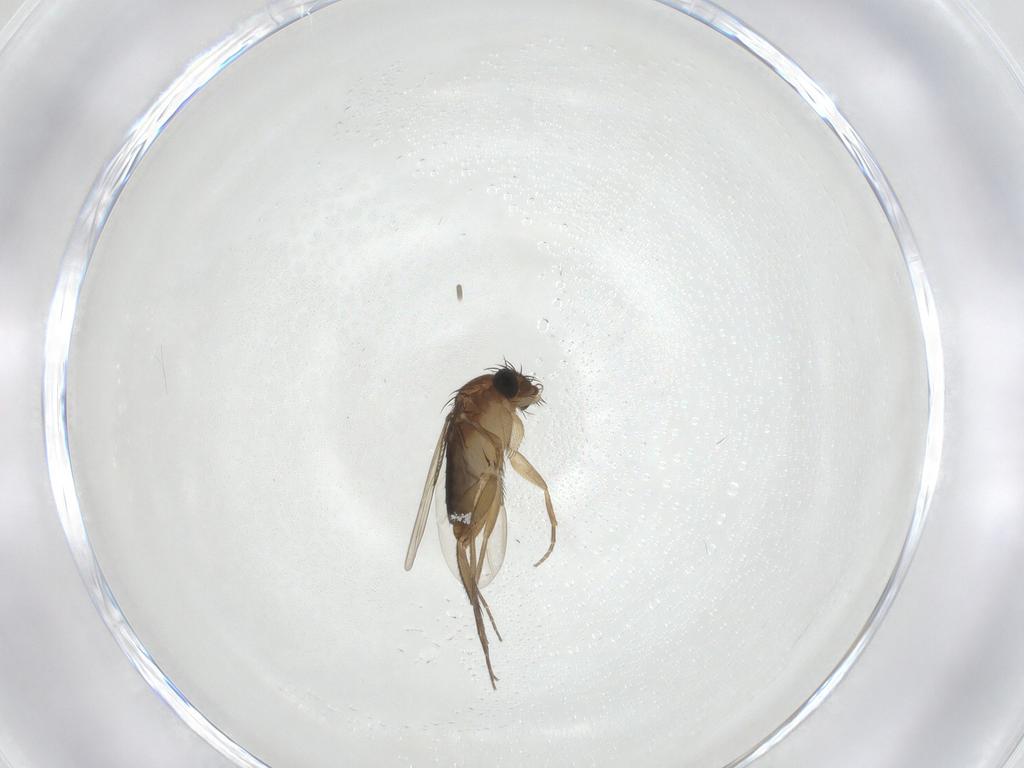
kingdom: Animalia
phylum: Arthropoda
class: Insecta
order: Diptera
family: Phoridae
